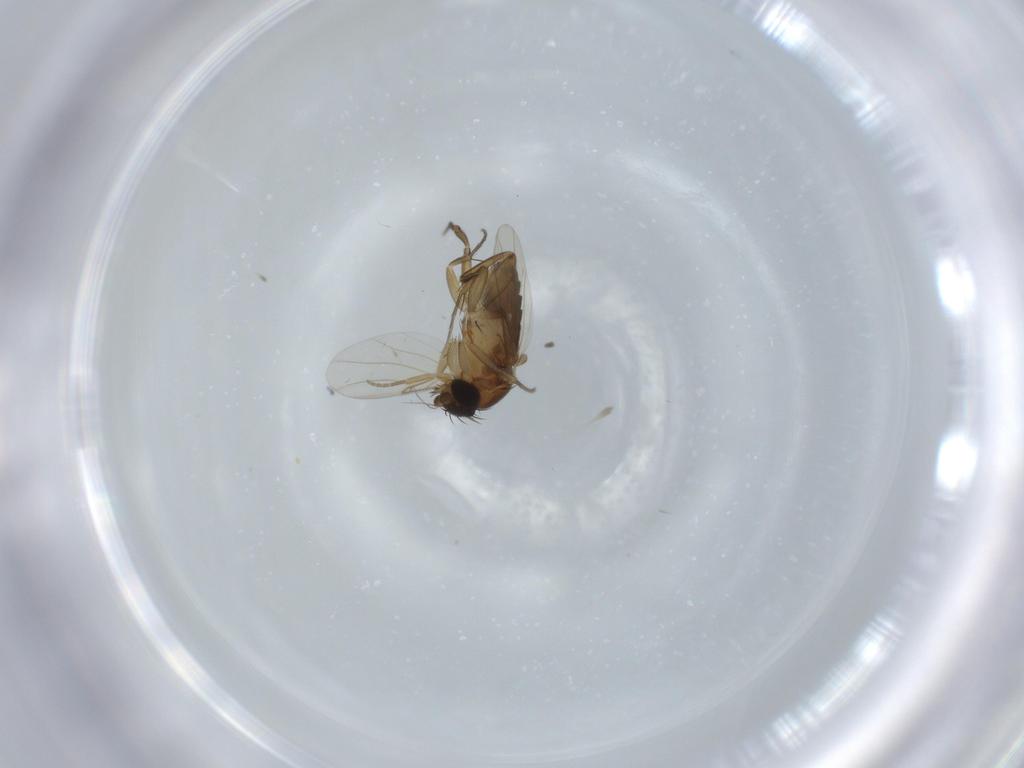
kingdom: Animalia
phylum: Arthropoda
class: Insecta
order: Diptera
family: Phoridae
